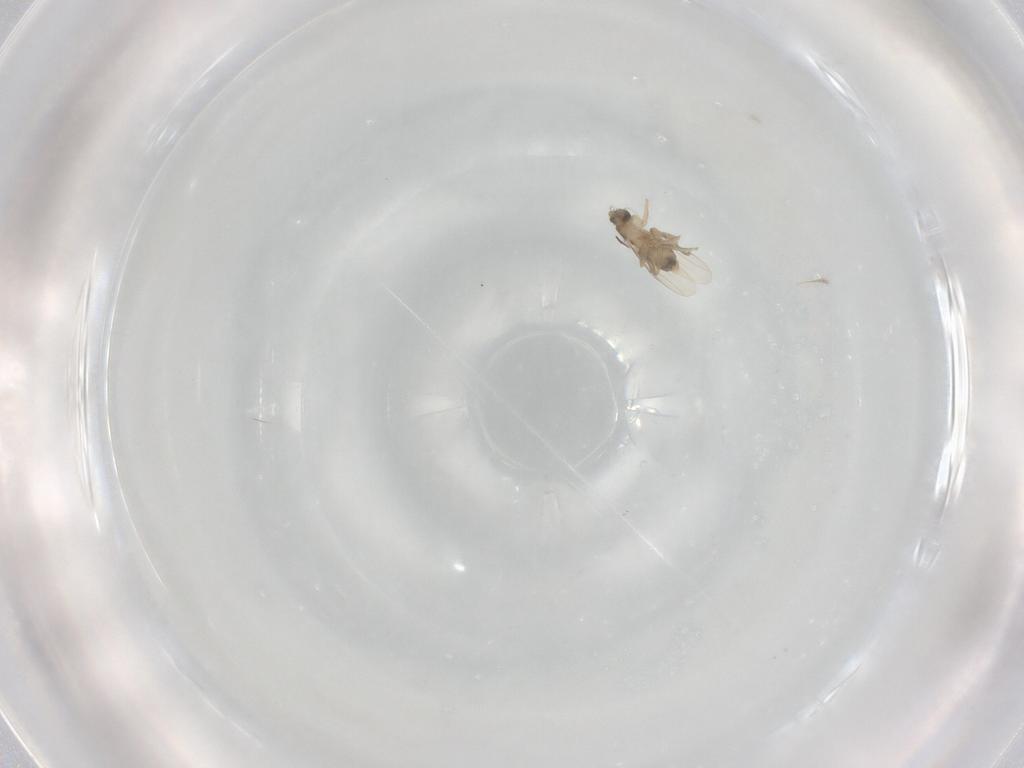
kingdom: Animalia
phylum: Arthropoda
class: Insecta
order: Diptera
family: Phoridae
